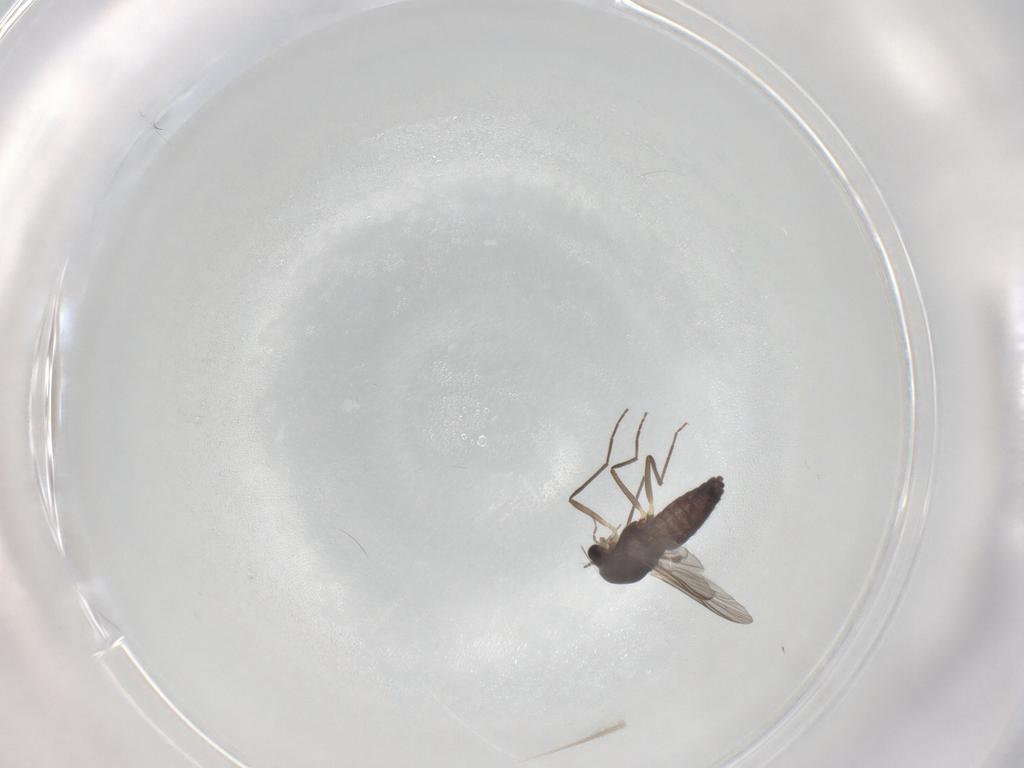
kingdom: Animalia
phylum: Arthropoda
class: Insecta
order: Diptera
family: Chironomidae
